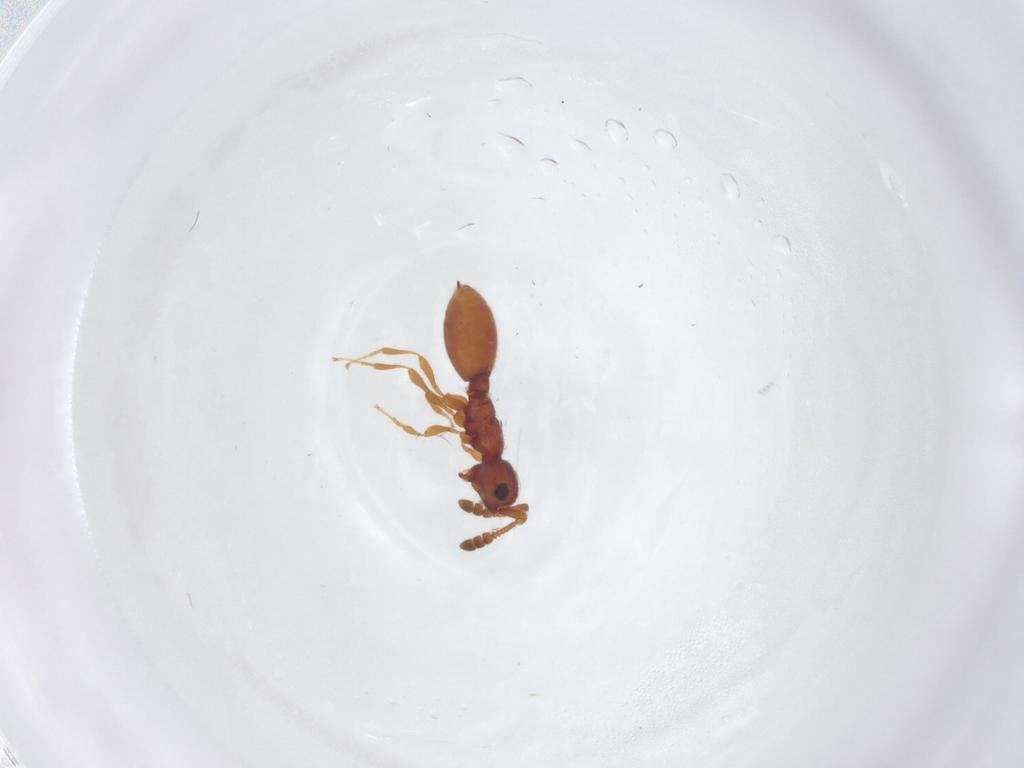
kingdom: Animalia
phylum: Arthropoda
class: Insecta
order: Hymenoptera
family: Diapriidae
